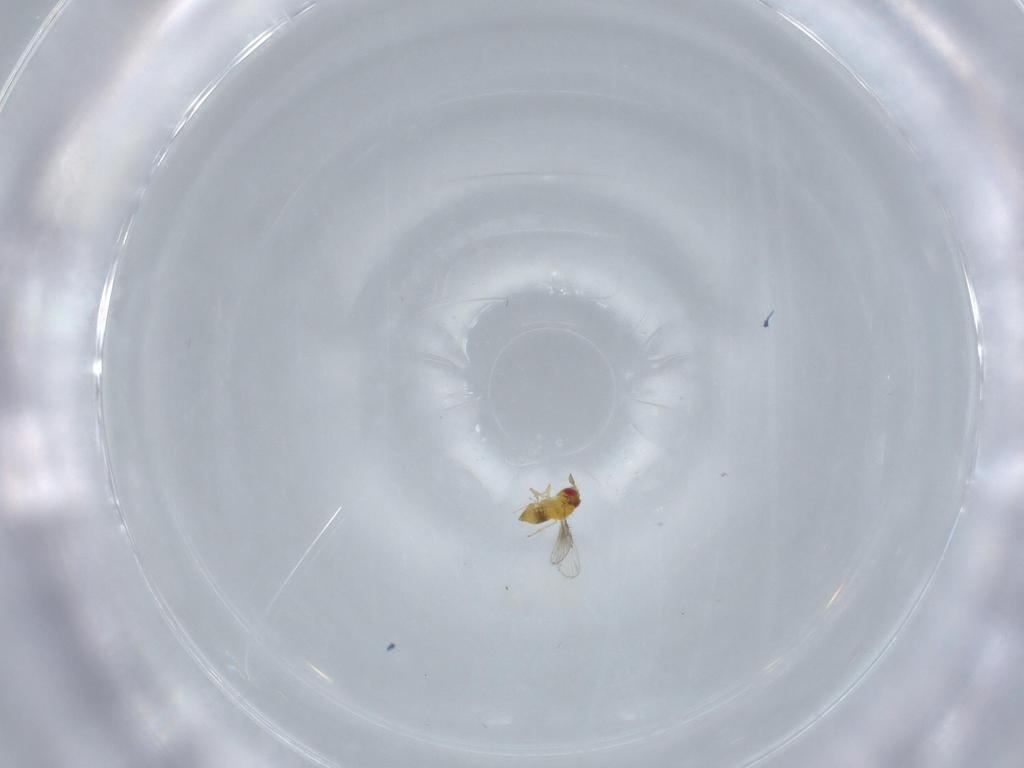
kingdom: Animalia
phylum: Arthropoda
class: Insecta
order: Hymenoptera
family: Trichogrammatidae
